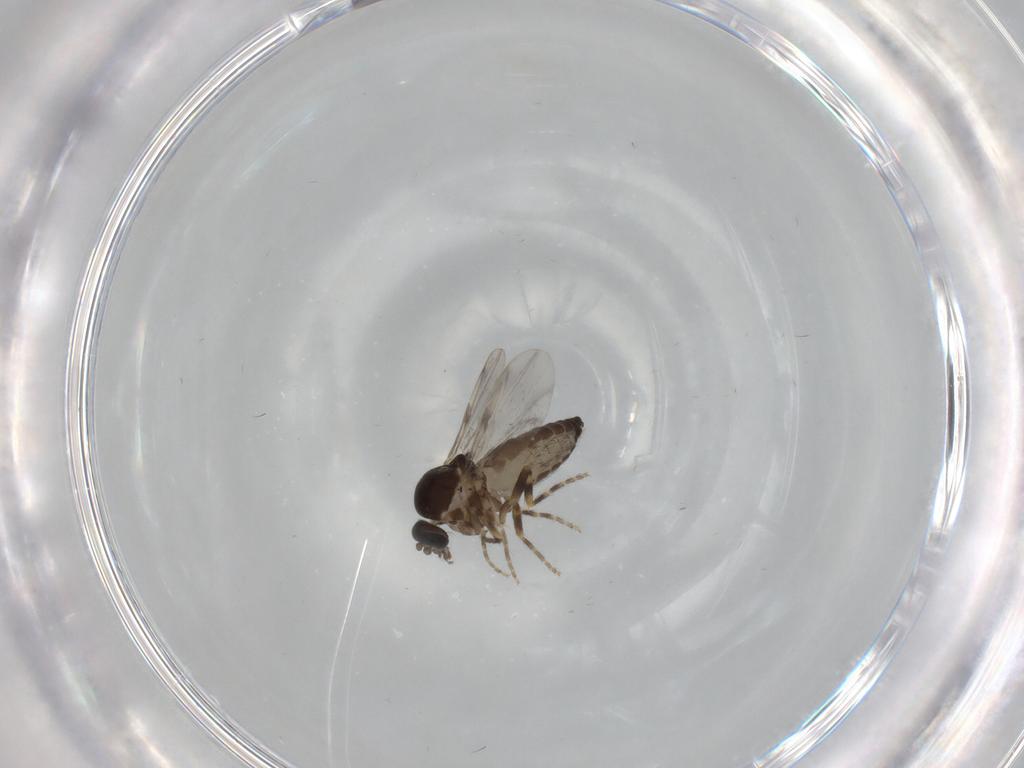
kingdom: Animalia
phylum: Arthropoda
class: Insecta
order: Diptera
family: Ceratopogonidae
